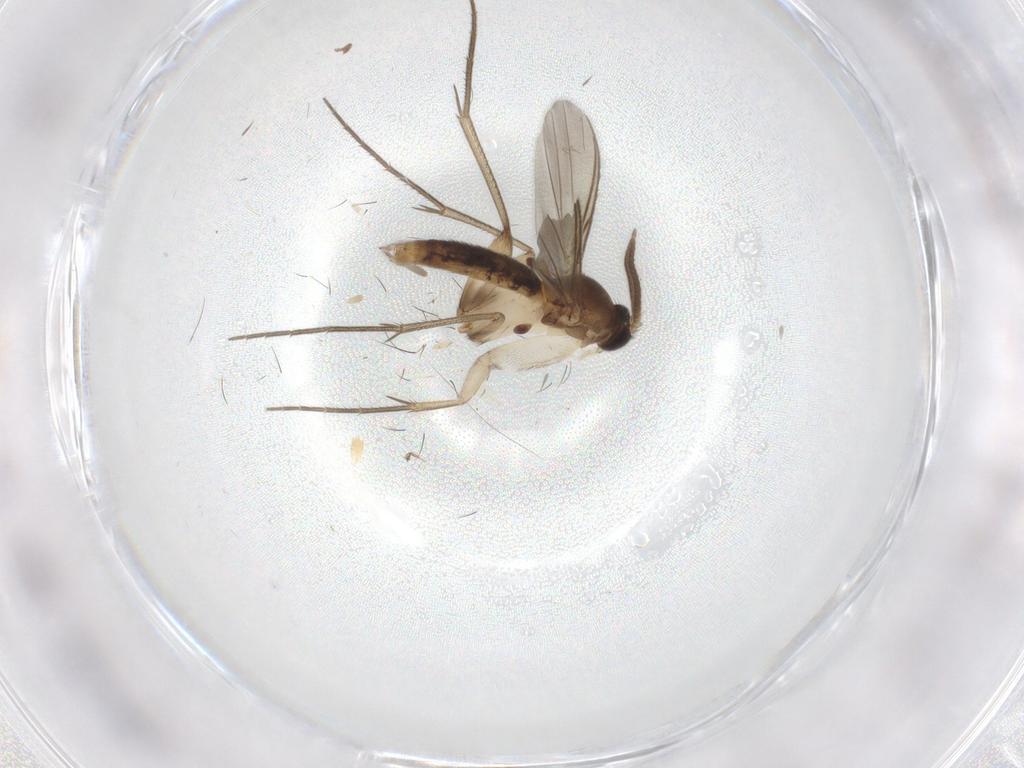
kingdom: Animalia
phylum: Arthropoda
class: Insecta
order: Diptera
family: Mycetophilidae
